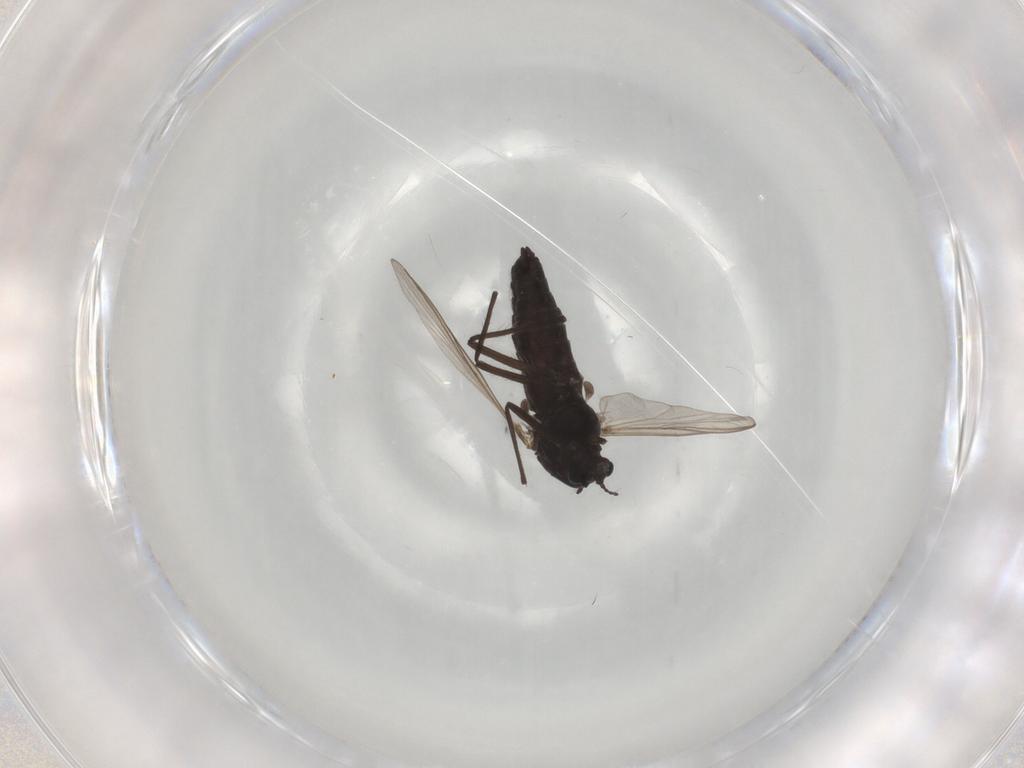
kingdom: Animalia
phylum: Arthropoda
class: Insecta
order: Diptera
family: Chironomidae
